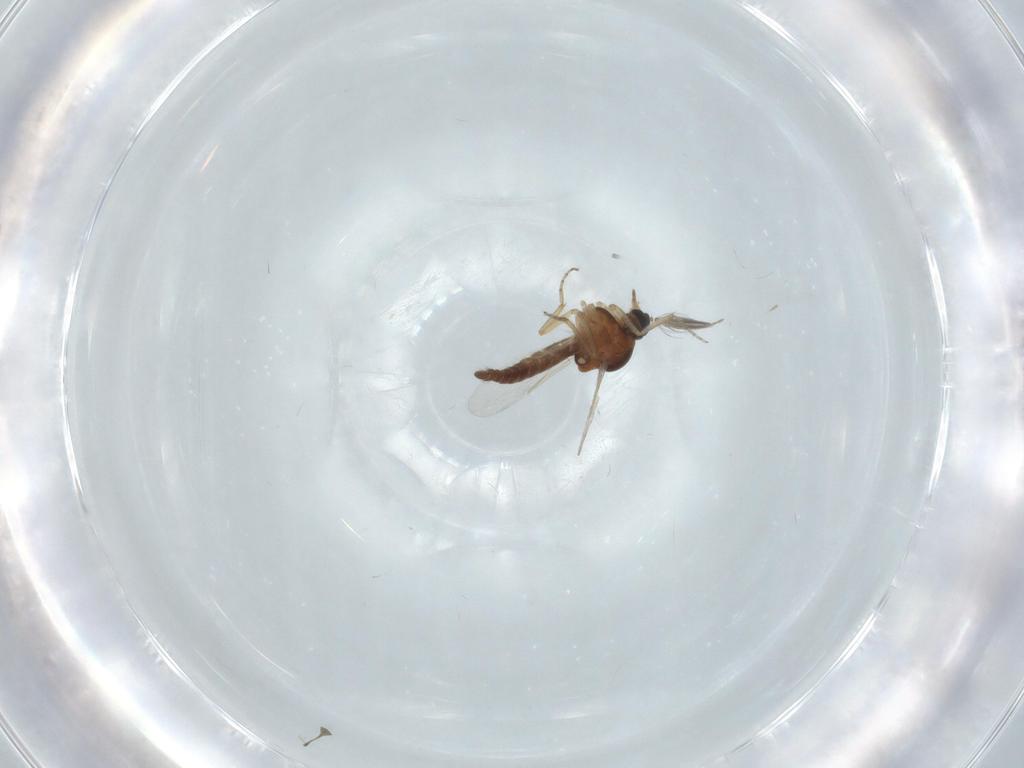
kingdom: Animalia
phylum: Arthropoda
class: Insecta
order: Diptera
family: Ceratopogonidae
